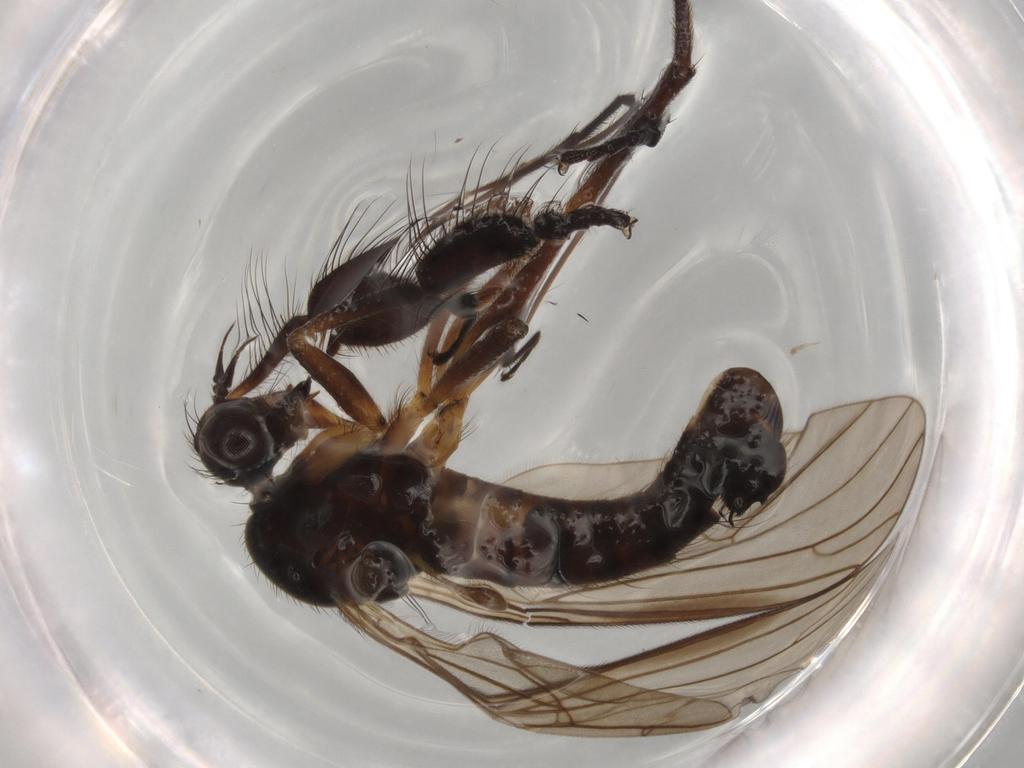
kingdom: Animalia
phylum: Arthropoda
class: Insecta
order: Diptera
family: Empididae
